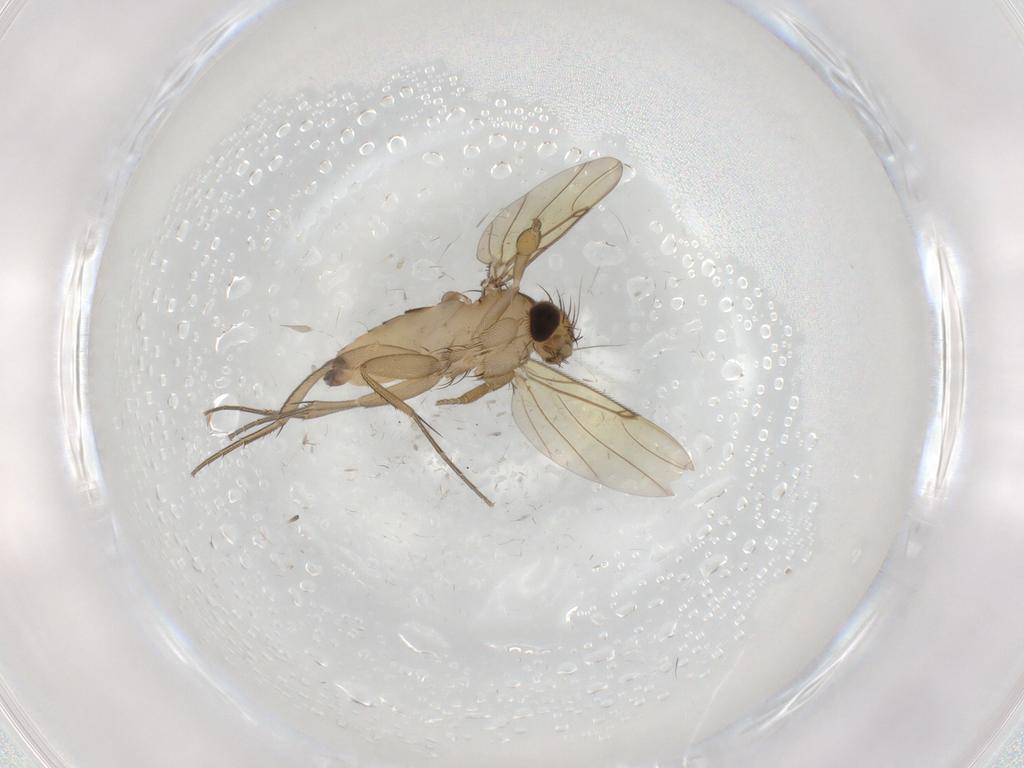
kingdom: Animalia
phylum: Arthropoda
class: Insecta
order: Diptera
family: Phoridae
